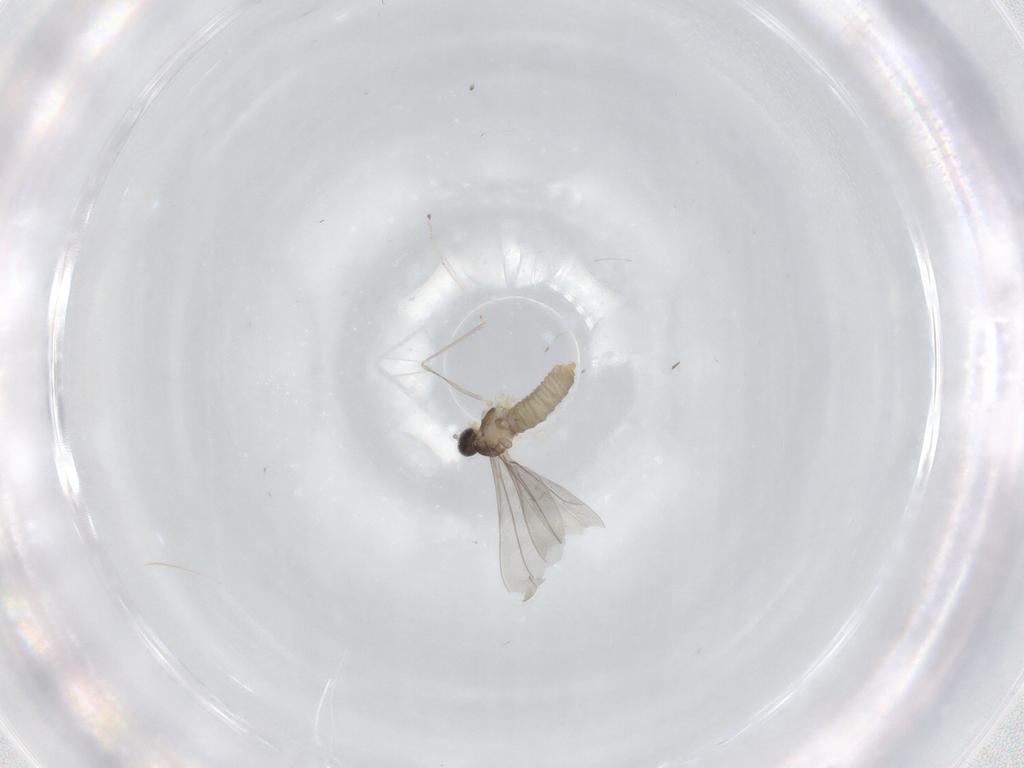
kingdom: Animalia
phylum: Arthropoda
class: Insecta
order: Diptera
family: Cecidomyiidae
